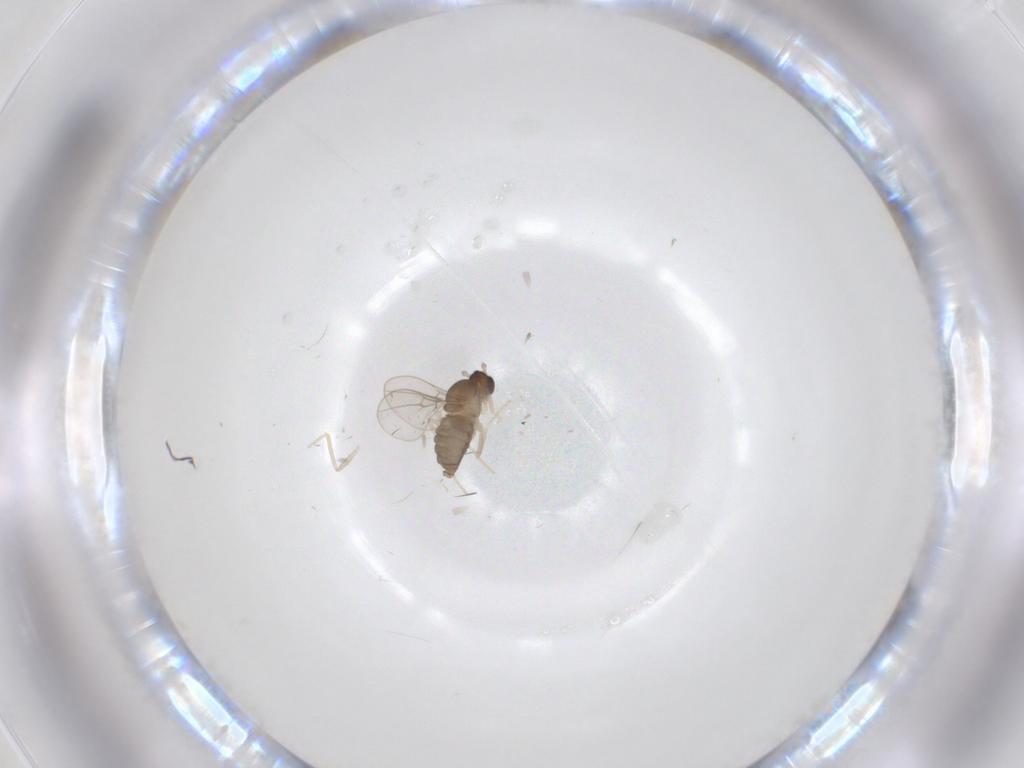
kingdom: Animalia
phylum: Arthropoda
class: Insecta
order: Diptera
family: Cecidomyiidae
